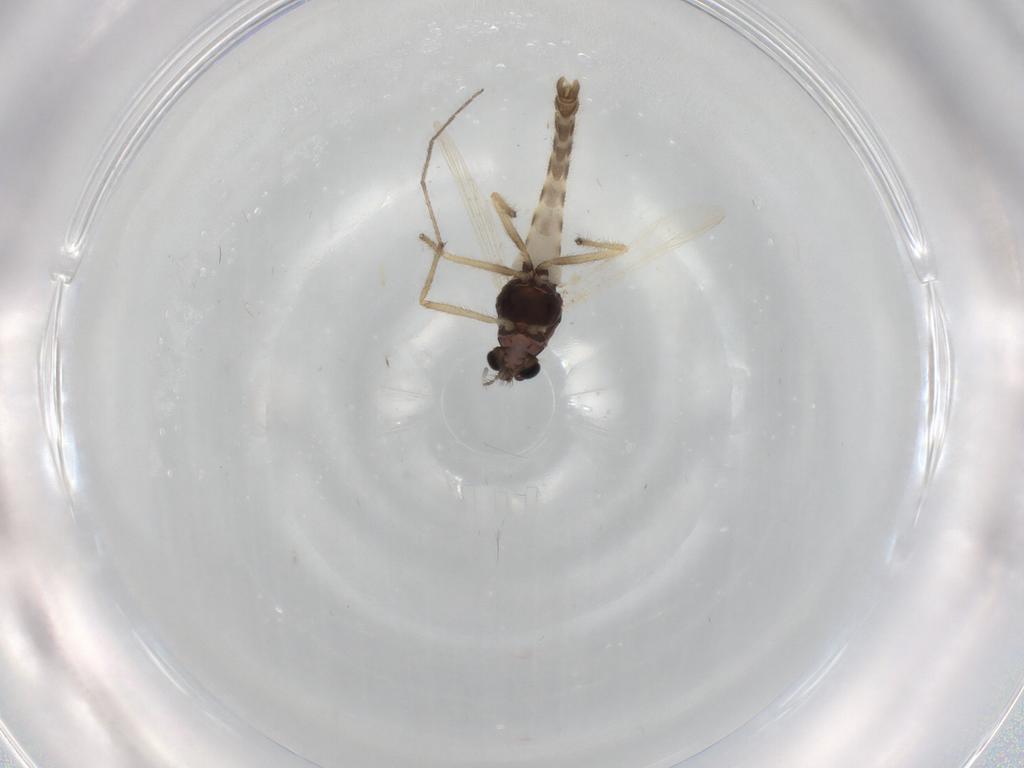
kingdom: Animalia
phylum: Arthropoda
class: Insecta
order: Diptera
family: Chironomidae
